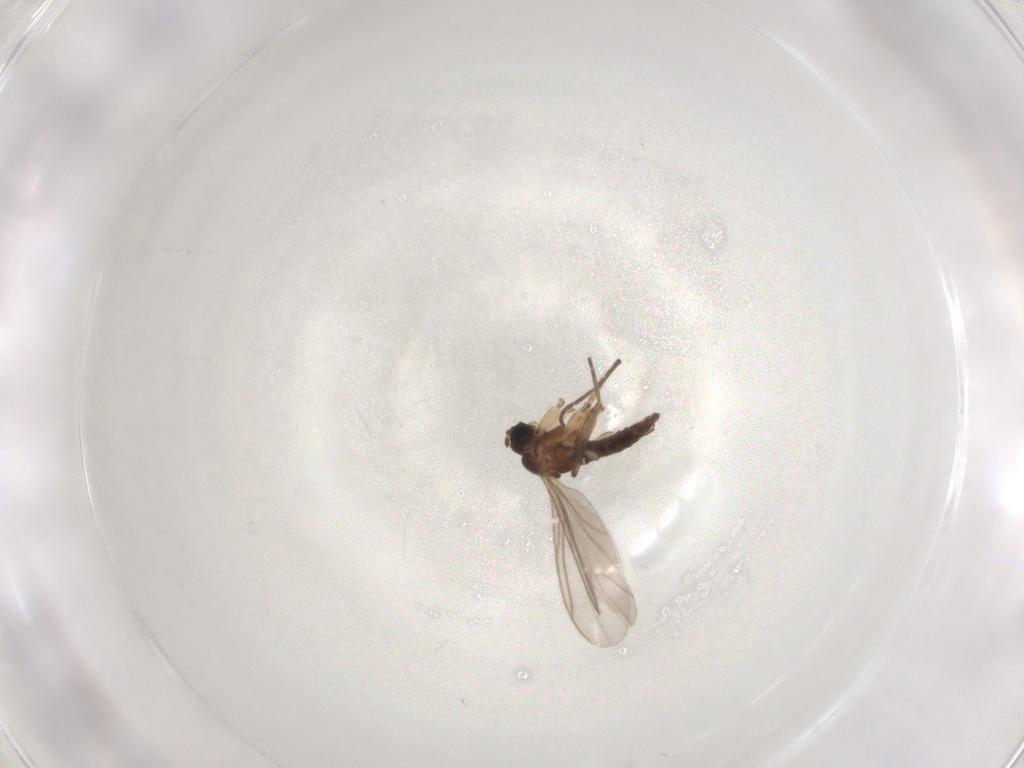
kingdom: Animalia
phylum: Arthropoda
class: Insecta
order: Diptera
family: Sciaridae
